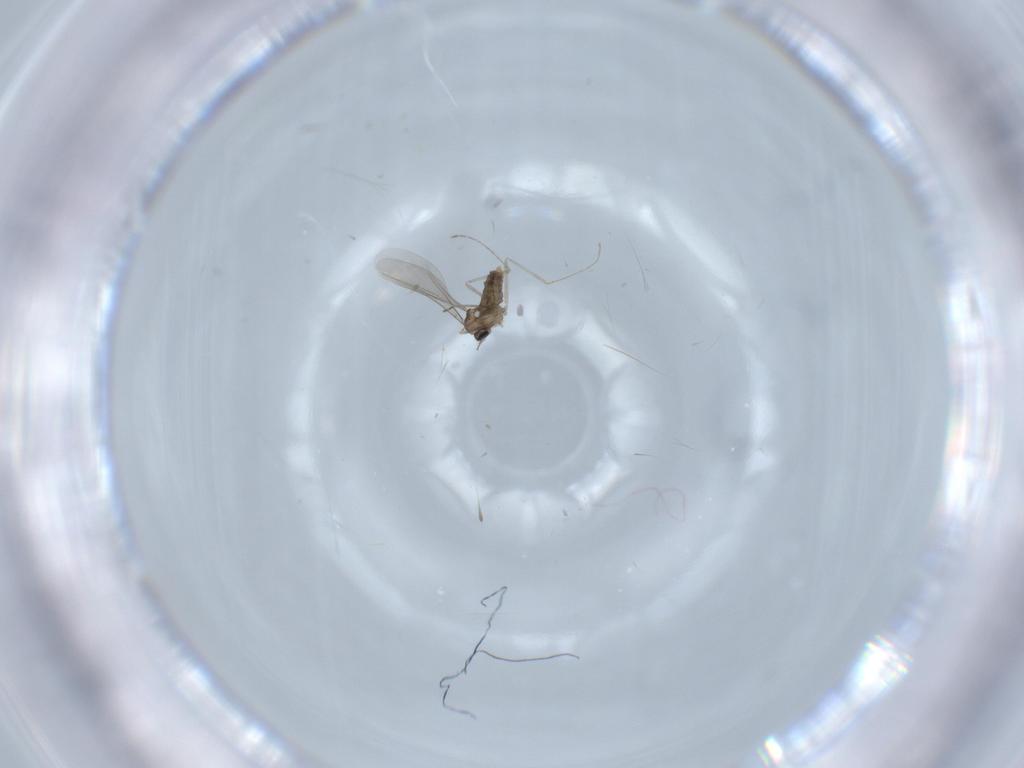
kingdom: Animalia
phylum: Arthropoda
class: Insecta
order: Diptera
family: Cecidomyiidae
